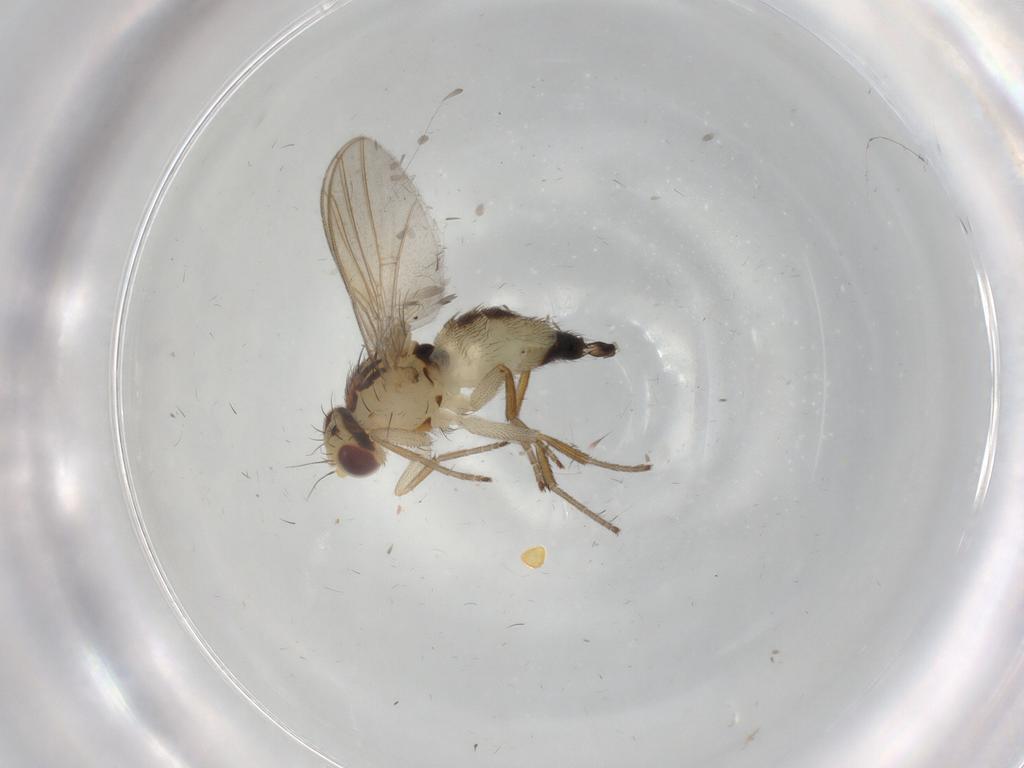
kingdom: Animalia
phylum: Arthropoda
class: Insecta
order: Diptera
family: Agromyzidae
